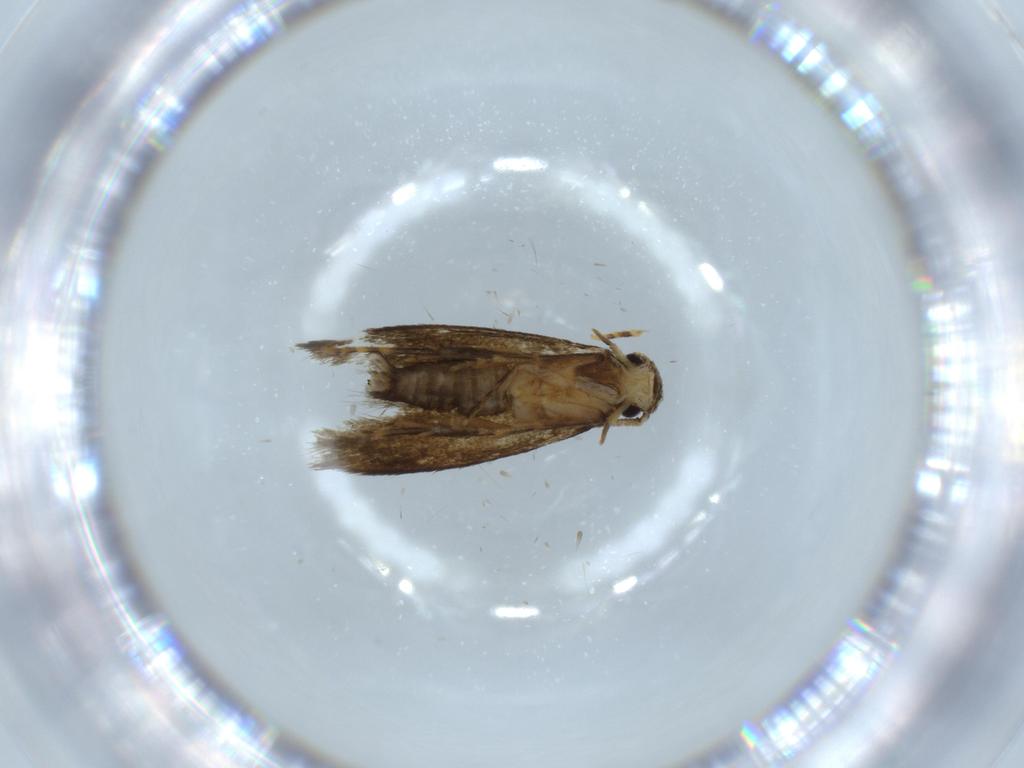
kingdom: Animalia
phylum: Arthropoda
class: Insecta
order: Lepidoptera
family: Tineidae
